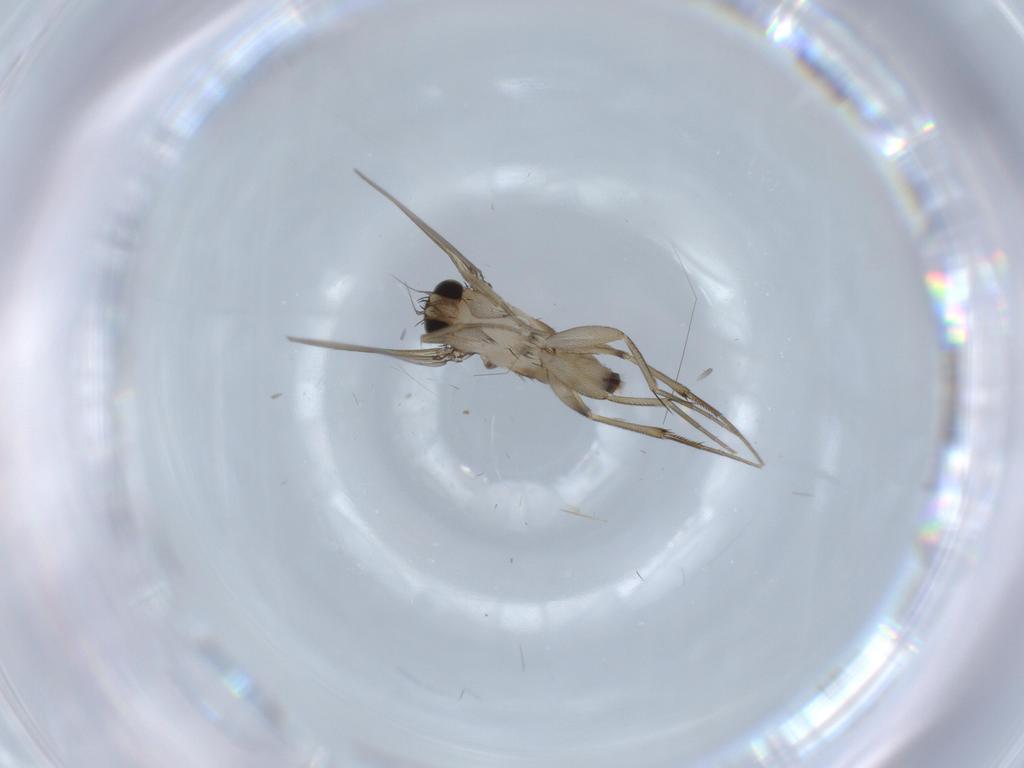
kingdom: Animalia
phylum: Arthropoda
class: Insecta
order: Diptera
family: Phoridae
